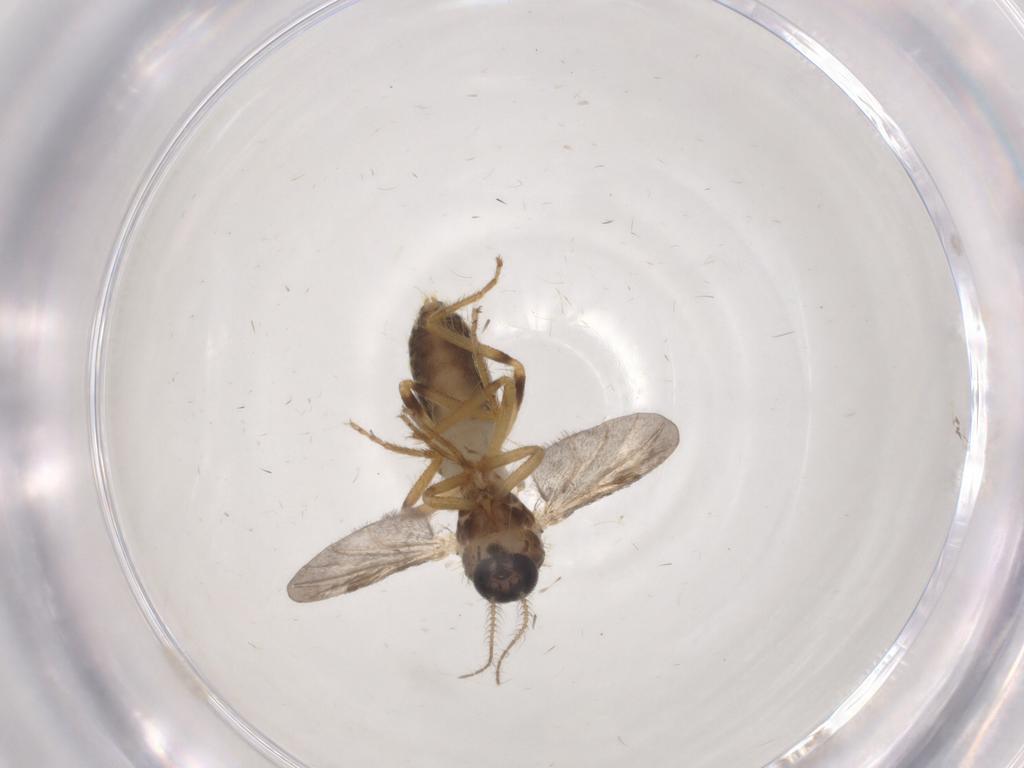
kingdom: Animalia
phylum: Arthropoda
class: Insecta
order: Diptera
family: Ceratopogonidae
